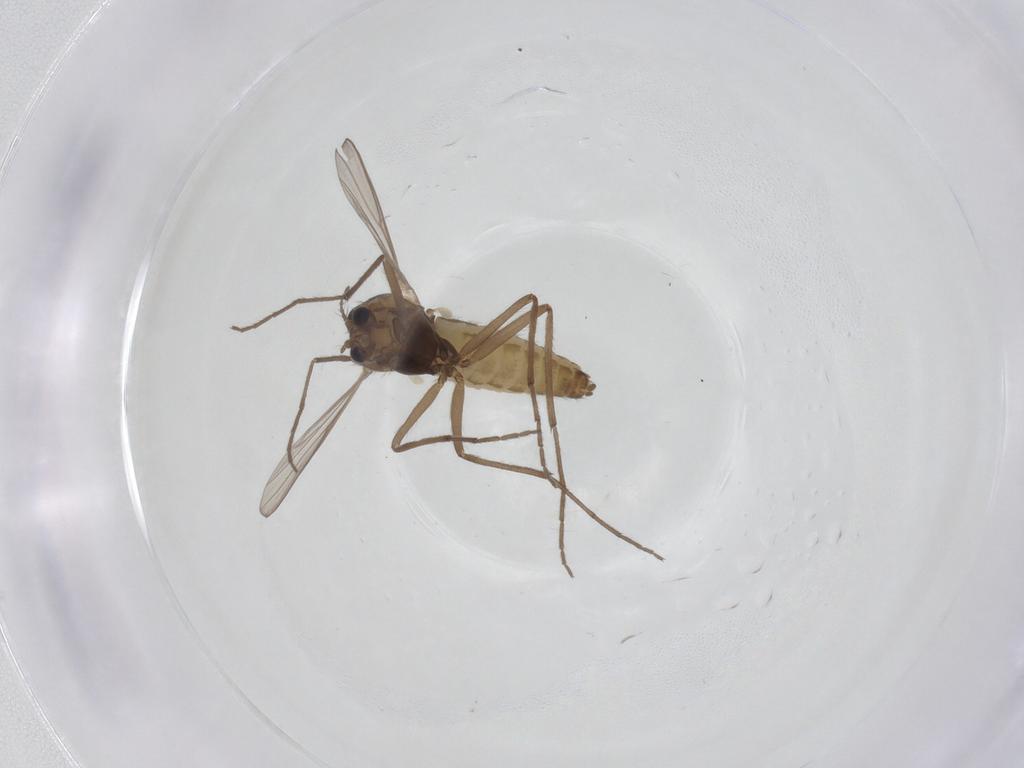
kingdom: Animalia
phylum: Arthropoda
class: Insecta
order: Diptera
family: Chironomidae
